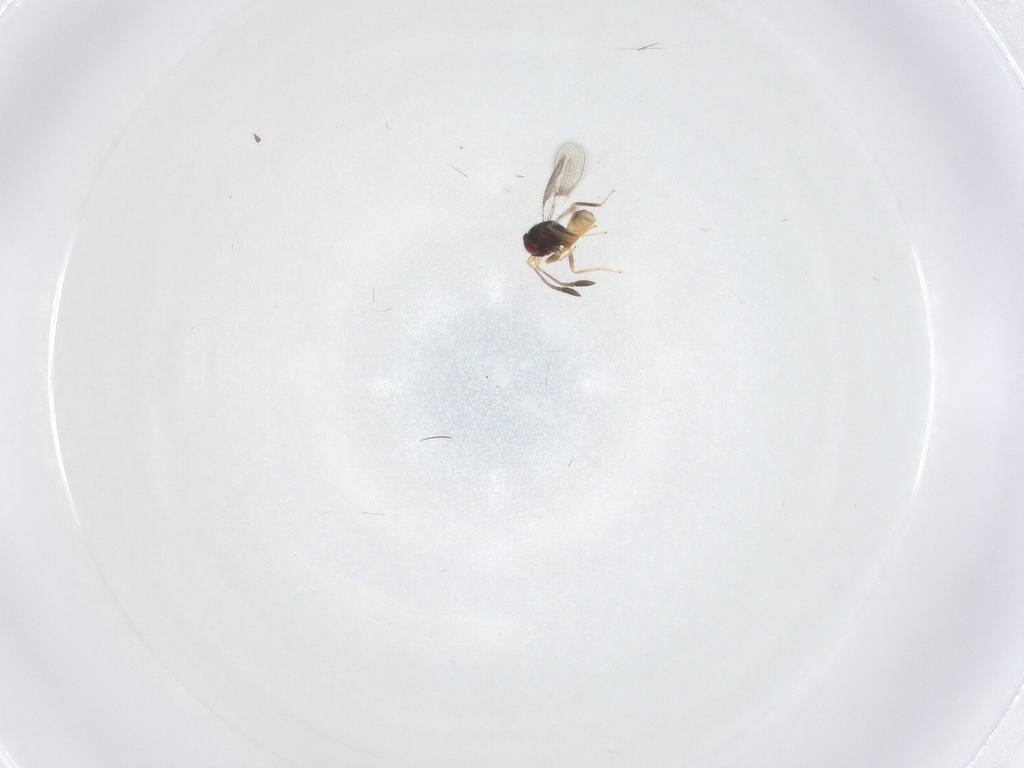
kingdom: Animalia
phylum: Arthropoda
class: Insecta
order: Hymenoptera
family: Mymaridae
